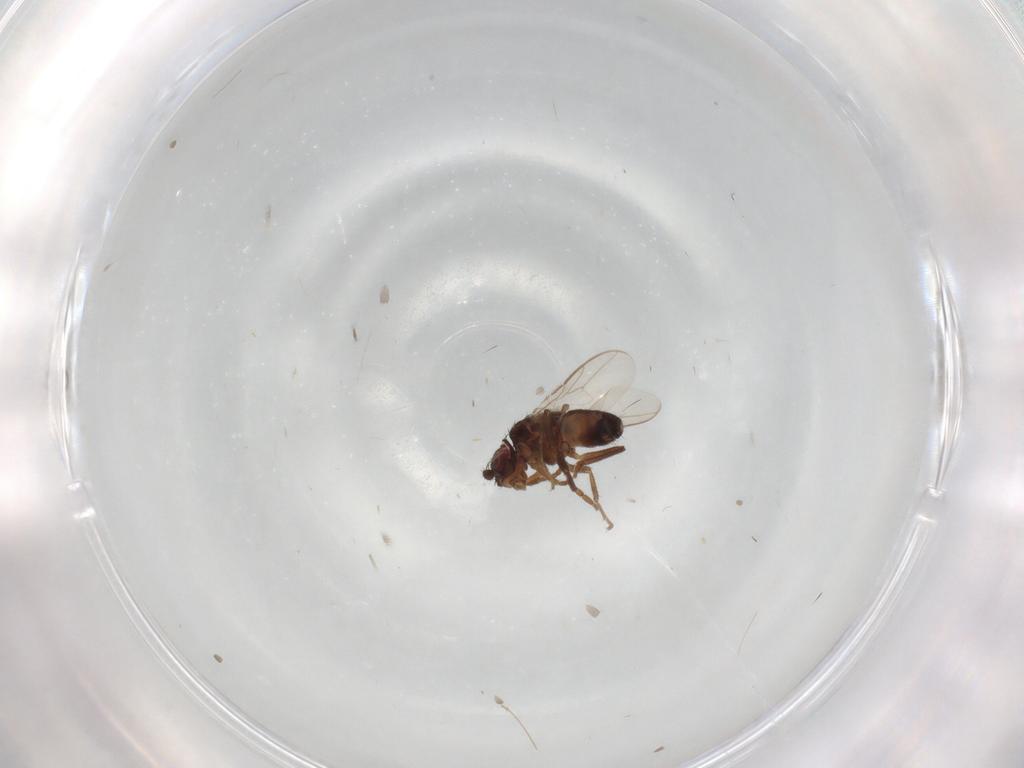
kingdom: Animalia
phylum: Arthropoda
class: Insecta
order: Diptera
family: Sphaeroceridae
